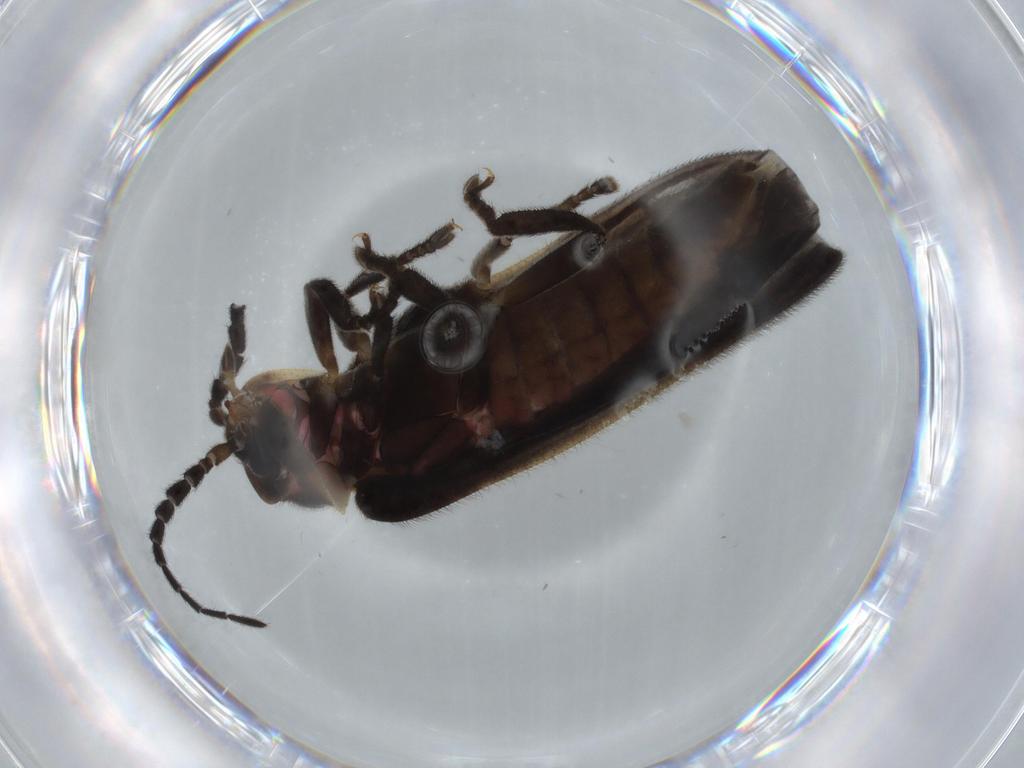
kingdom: Animalia
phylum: Arthropoda
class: Insecta
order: Coleoptera
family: Lampyridae
